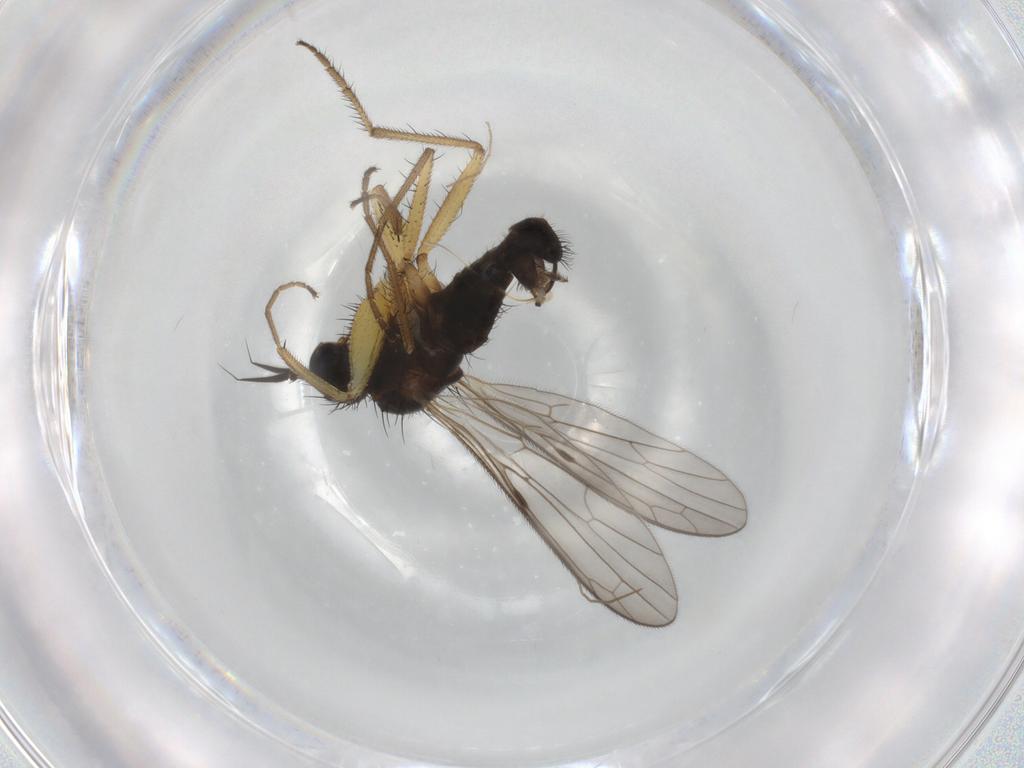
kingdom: Animalia
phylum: Arthropoda
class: Insecta
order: Diptera
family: Empididae
